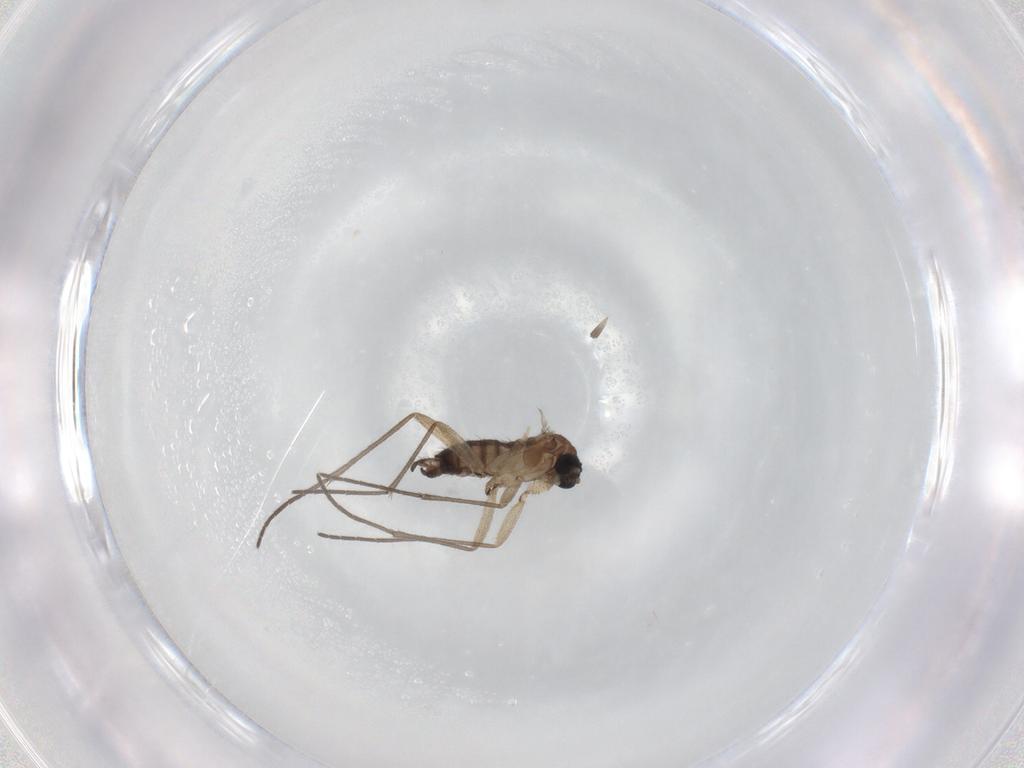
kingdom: Animalia
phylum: Arthropoda
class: Insecta
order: Diptera
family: Sciaridae
